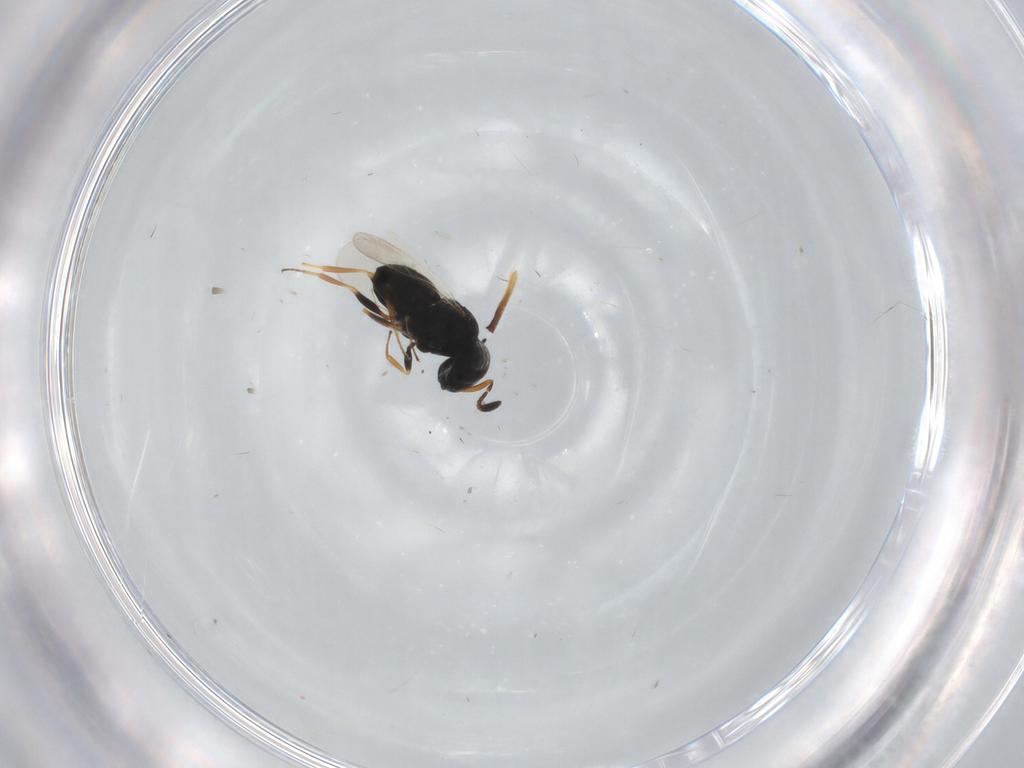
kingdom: Animalia
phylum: Arthropoda
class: Insecta
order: Coleoptera
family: Curculionidae
